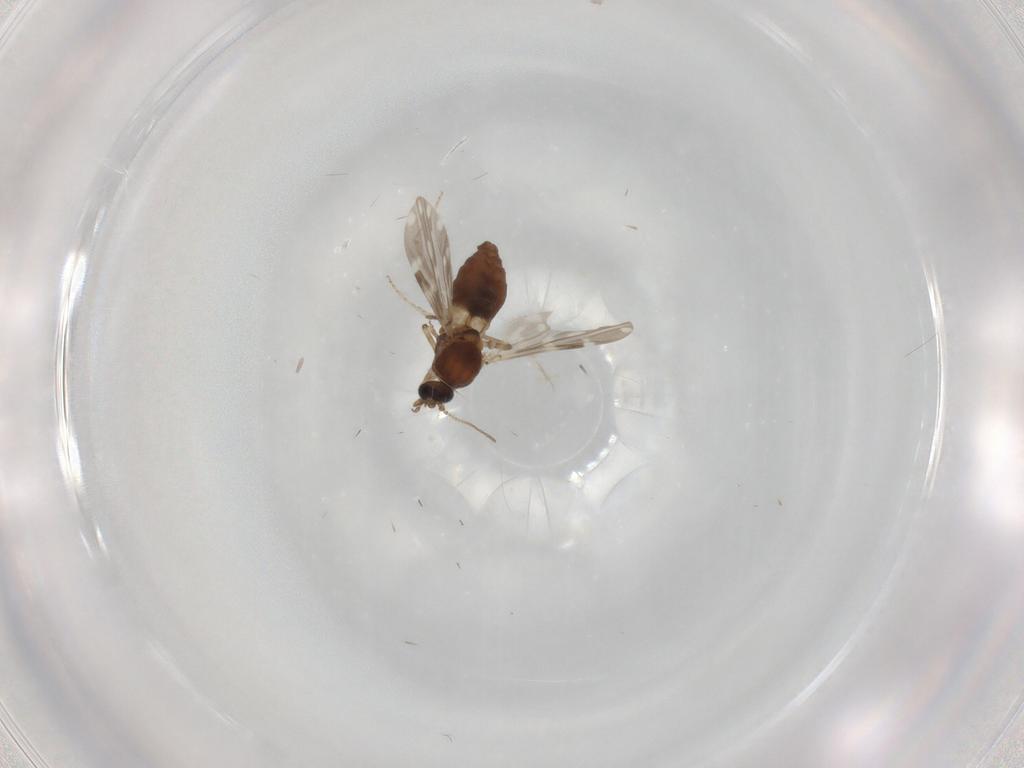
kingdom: Animalia
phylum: Arthropoda
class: Insecta
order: Diptera
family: Ceratopogonidae
